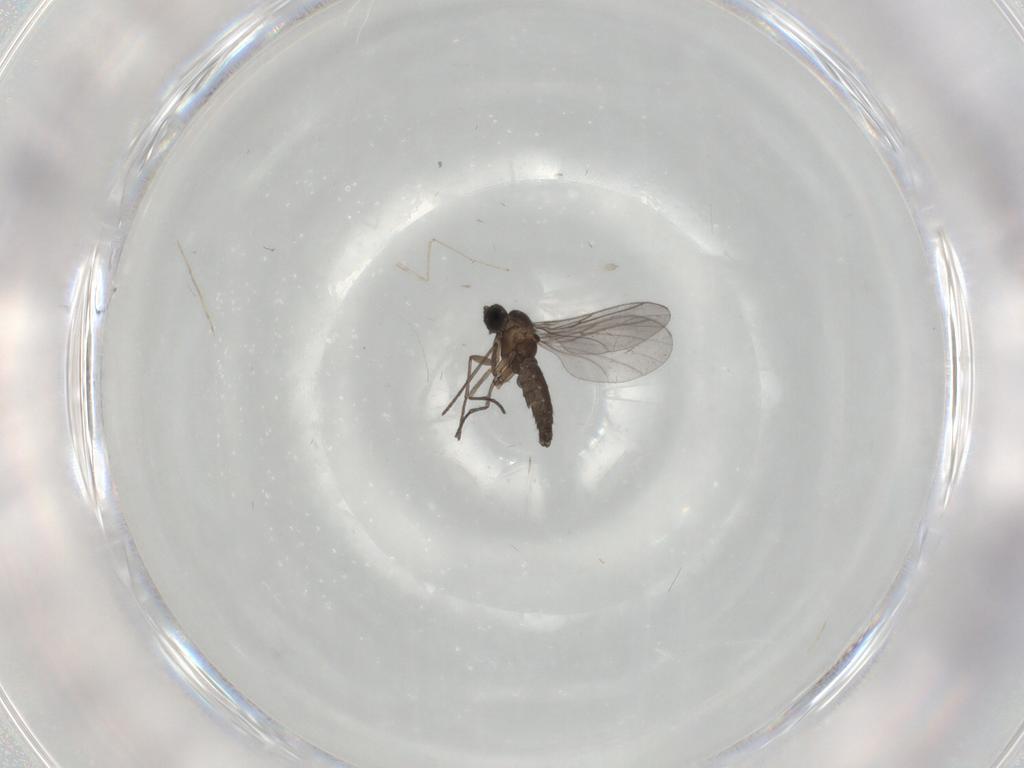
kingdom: Animalia
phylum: Arthropoda
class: Insecta
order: Diptera
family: Cecidomyiidae
